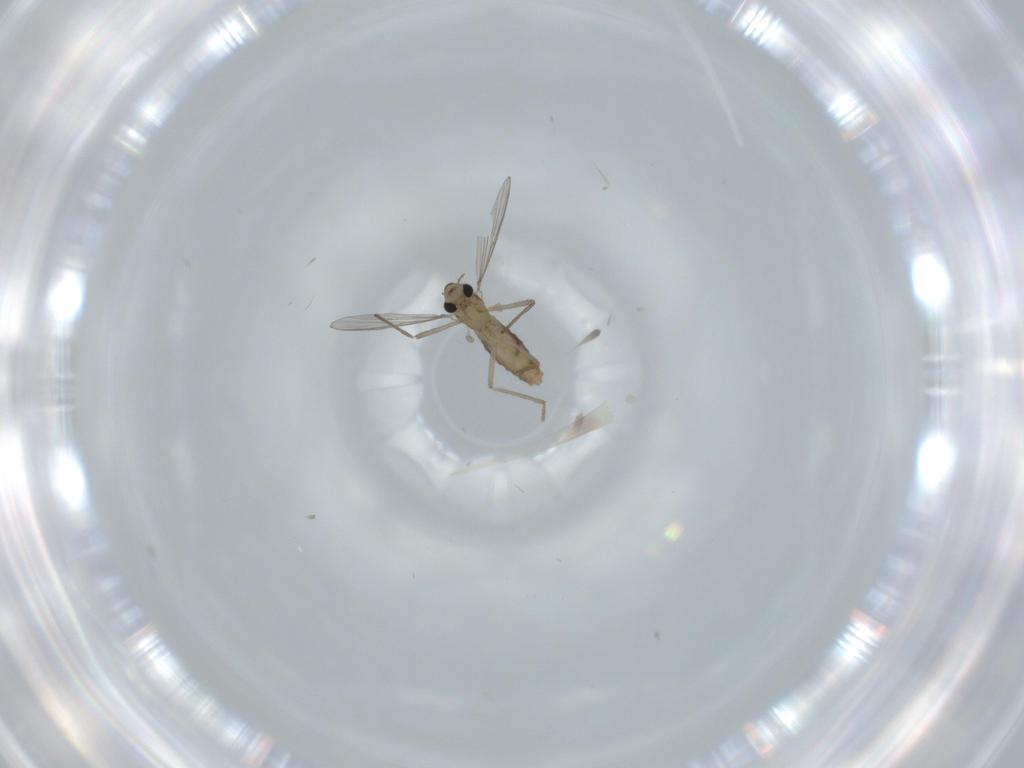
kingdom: Animalia
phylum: Arthropoda
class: Insecta
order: Diptera
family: Chironomidae
